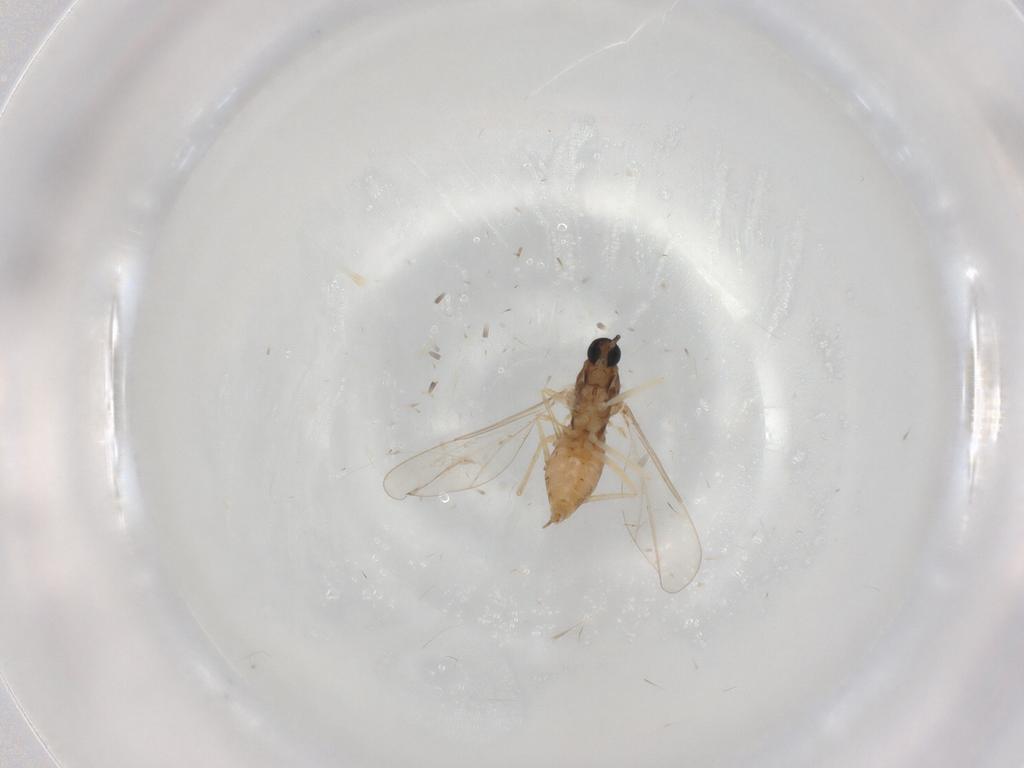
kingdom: Animalia
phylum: Arthropoda
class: Insecta
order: Diptera
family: Cecidomyiidae
